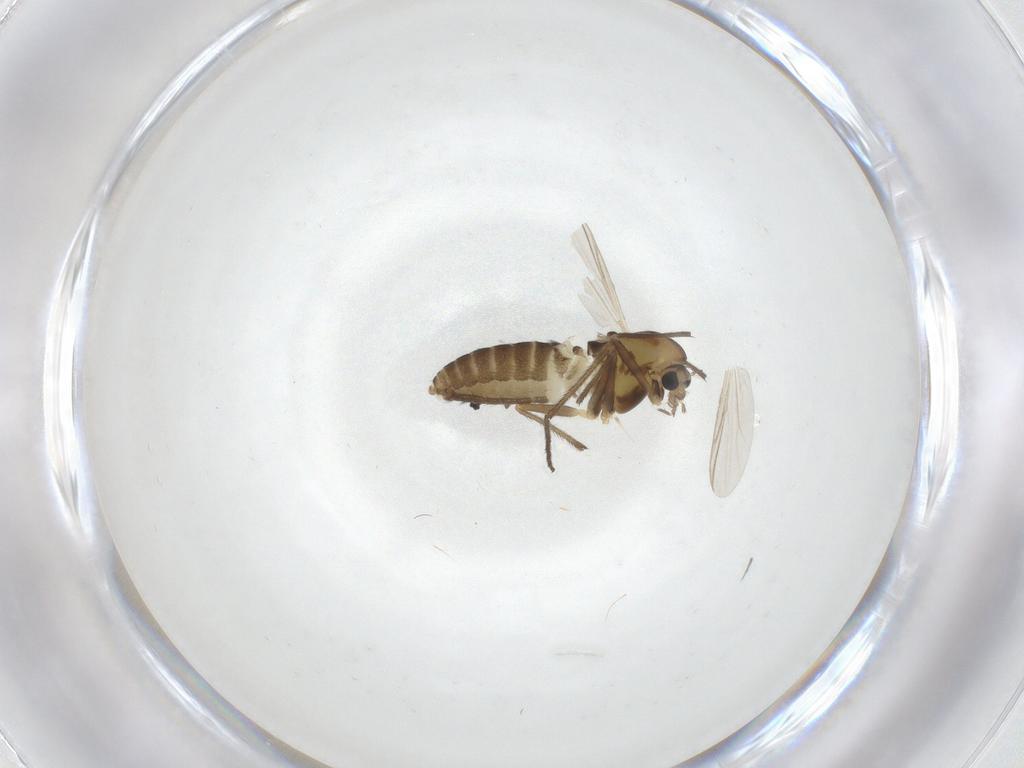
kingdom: Animalia
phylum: Arthropoda
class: Insecta
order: Diptera
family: Chironomidae
